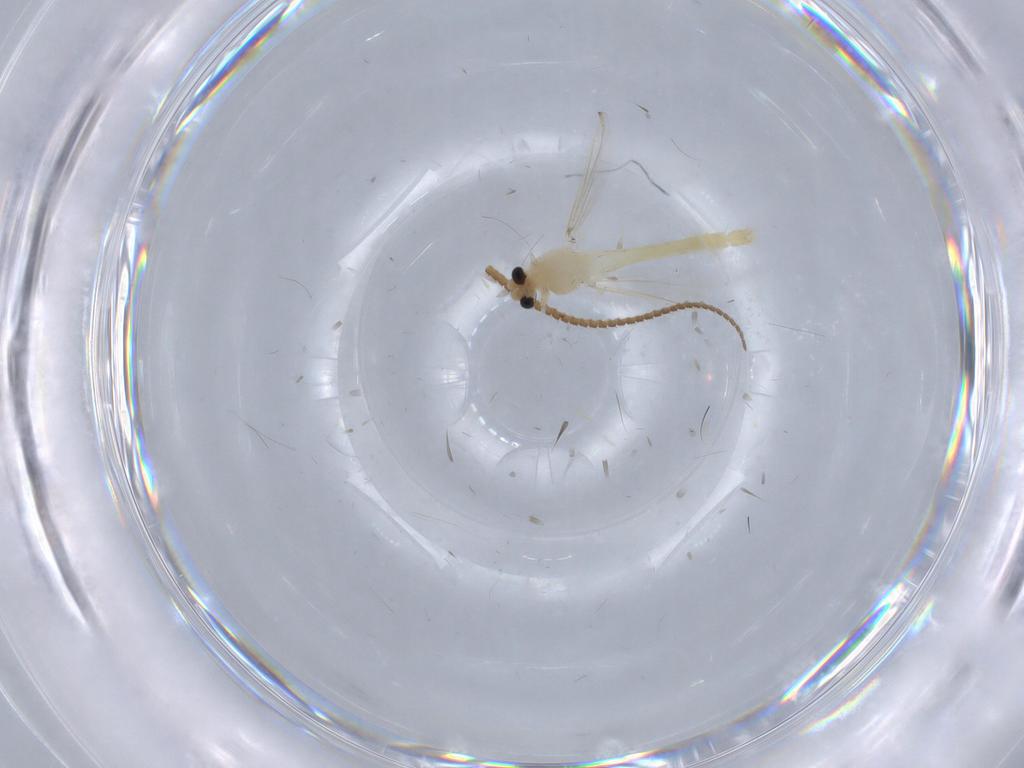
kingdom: Animalia
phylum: Arthropoda
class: Insecta
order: Diptera
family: Chironomidae
